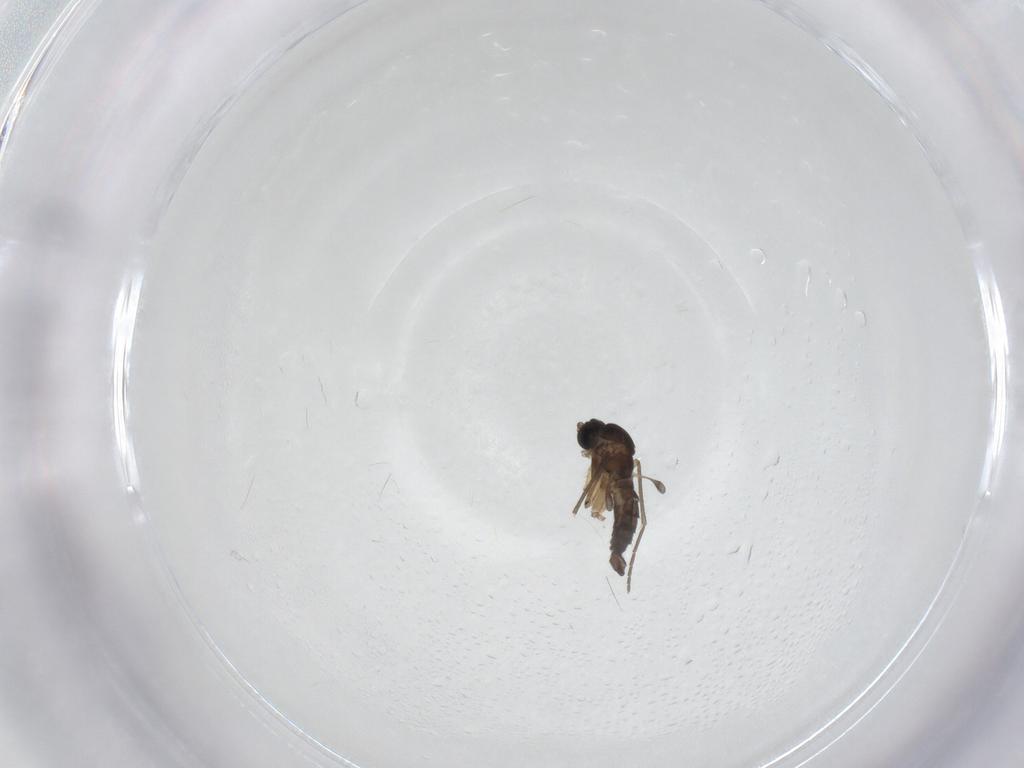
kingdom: Animalia
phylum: Arthropoda
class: Insecta
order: Diptera
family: Sciaridae
